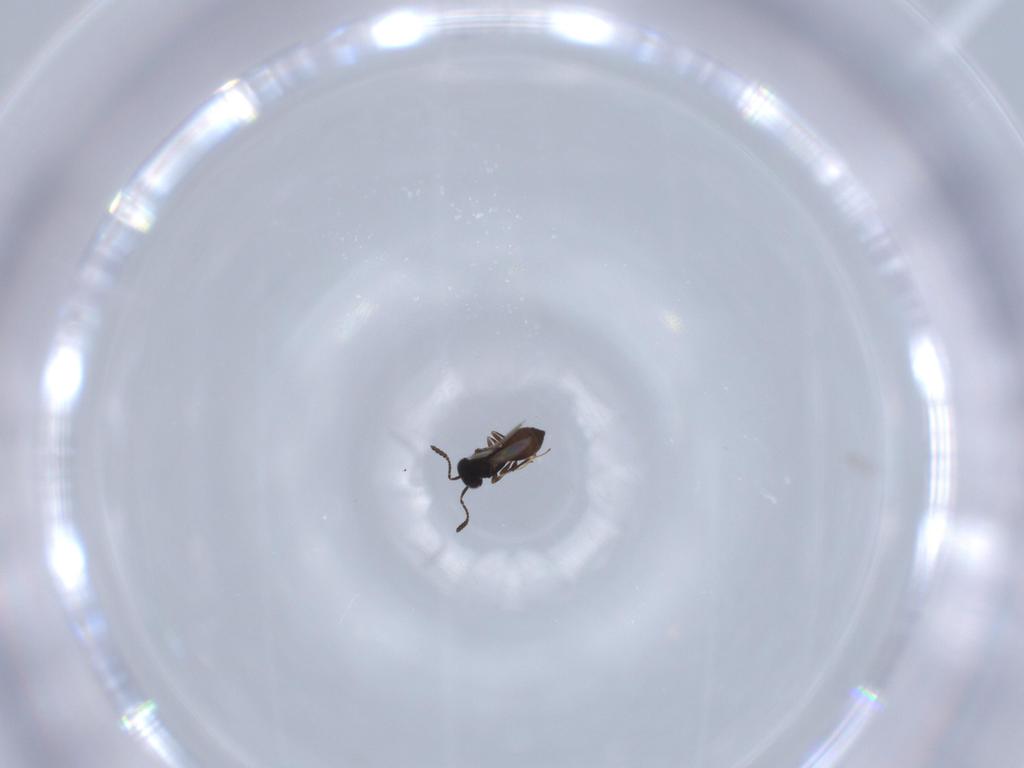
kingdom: Animalia
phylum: Arthropoda
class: Insecta
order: Hymenoptera
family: Scelionidae
